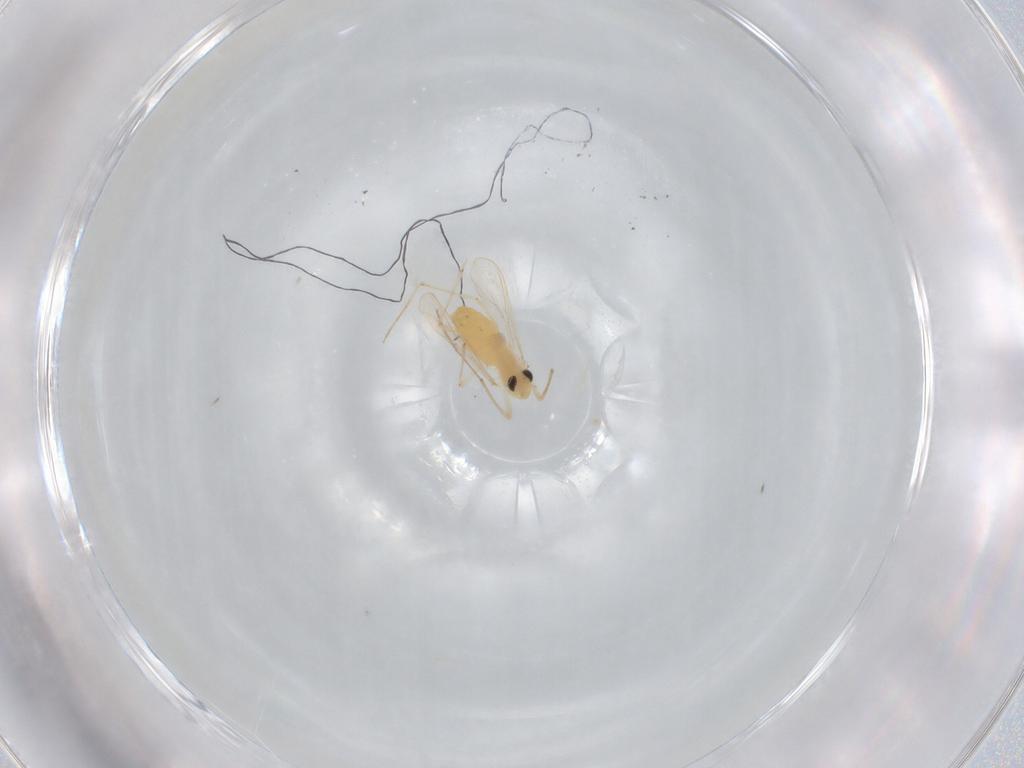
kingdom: Animalia
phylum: Arthropoda
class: Insecta
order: Diptera
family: Chironomidae
